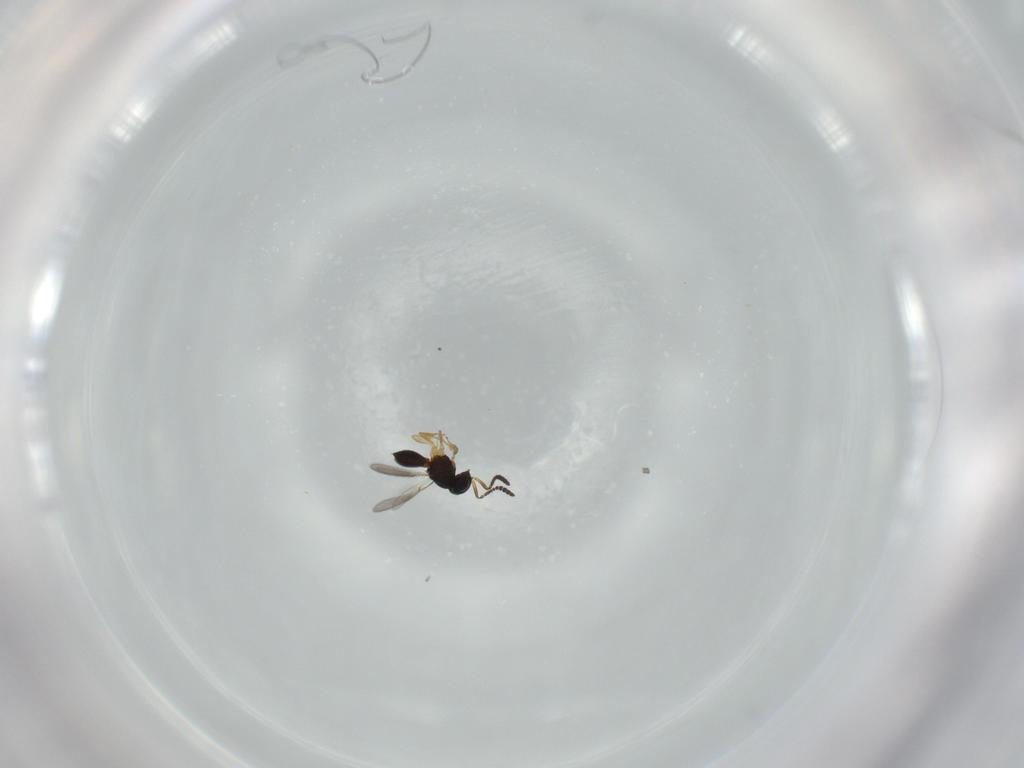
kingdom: Animalia
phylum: Arthropoda
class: Insecta
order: Hymenoptera
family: Scelionidae
